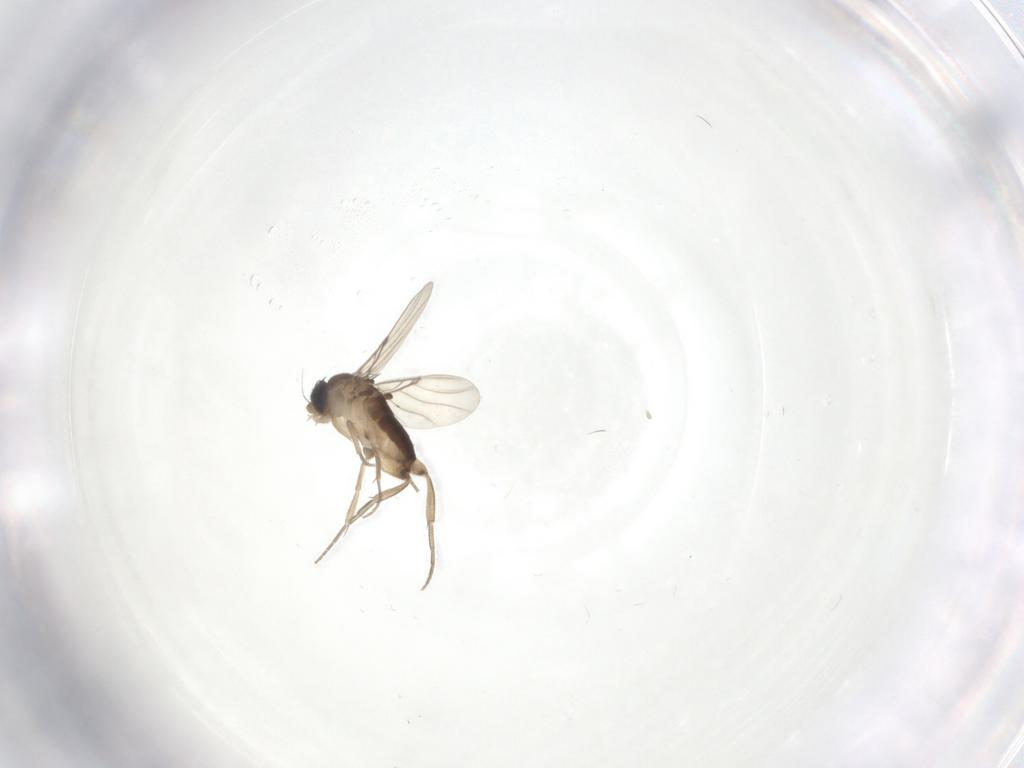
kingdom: Animalia
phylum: Arthropoda
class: Insecta
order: Diptera
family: Phoridae
